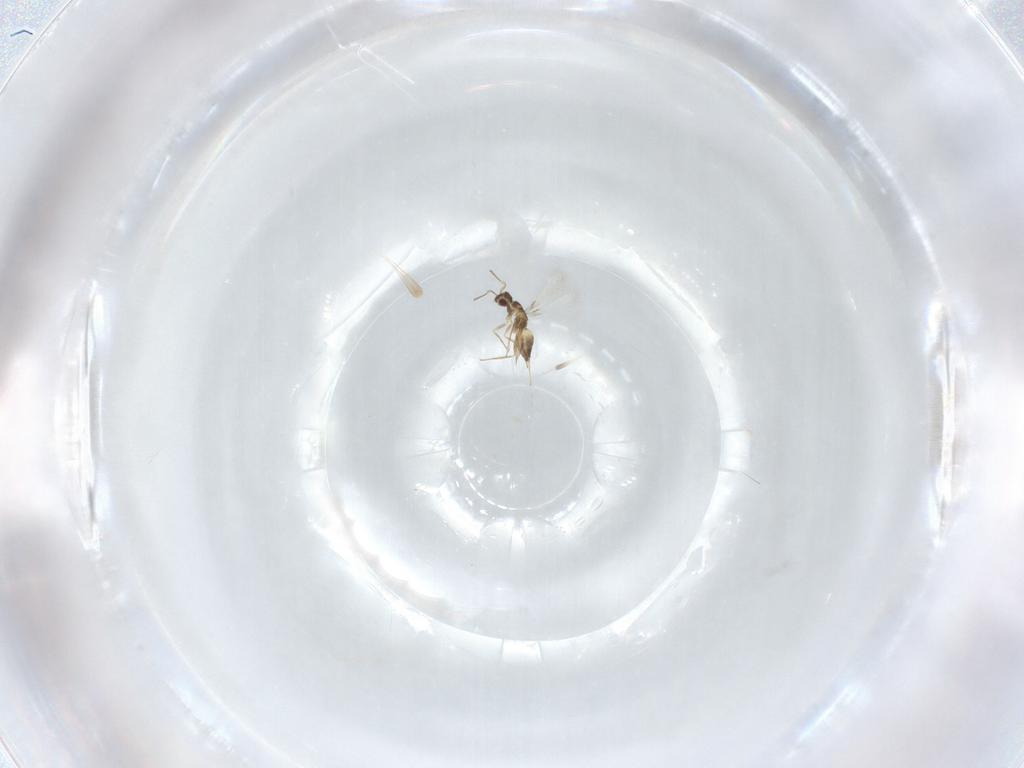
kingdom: Animalia
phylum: Arthropoda
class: Insecta
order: Hymenoptera
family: Mymaridae
